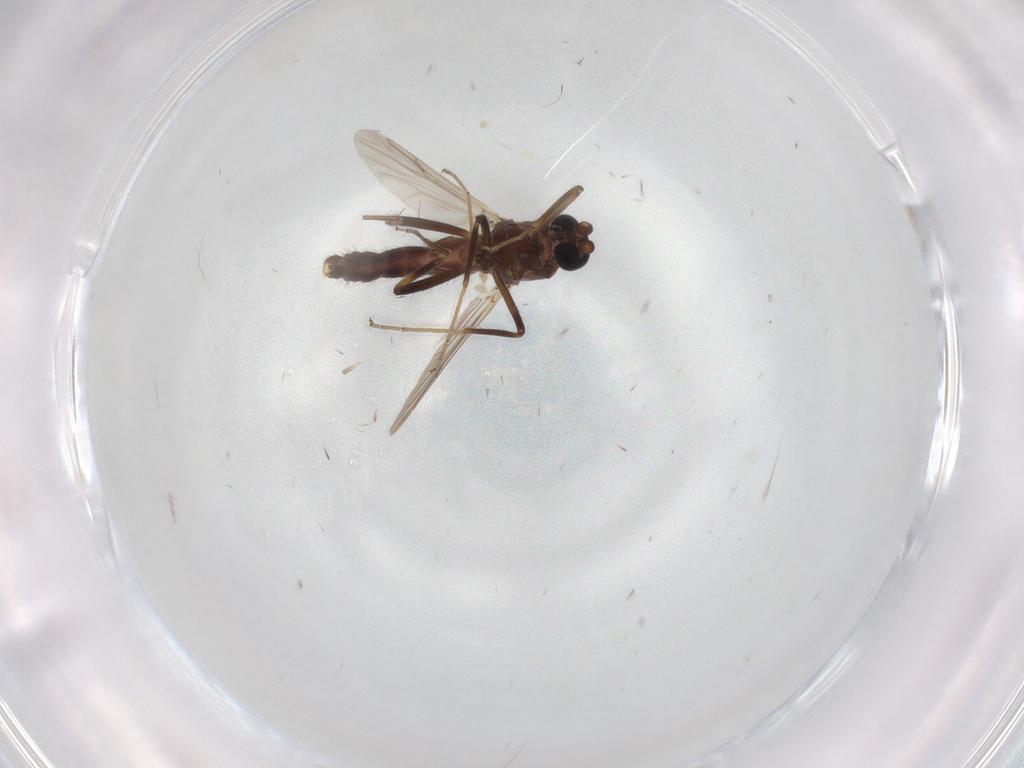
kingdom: Animalia
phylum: Arthropoda
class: Insecta
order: Diptera
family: Ceratopogonidae
